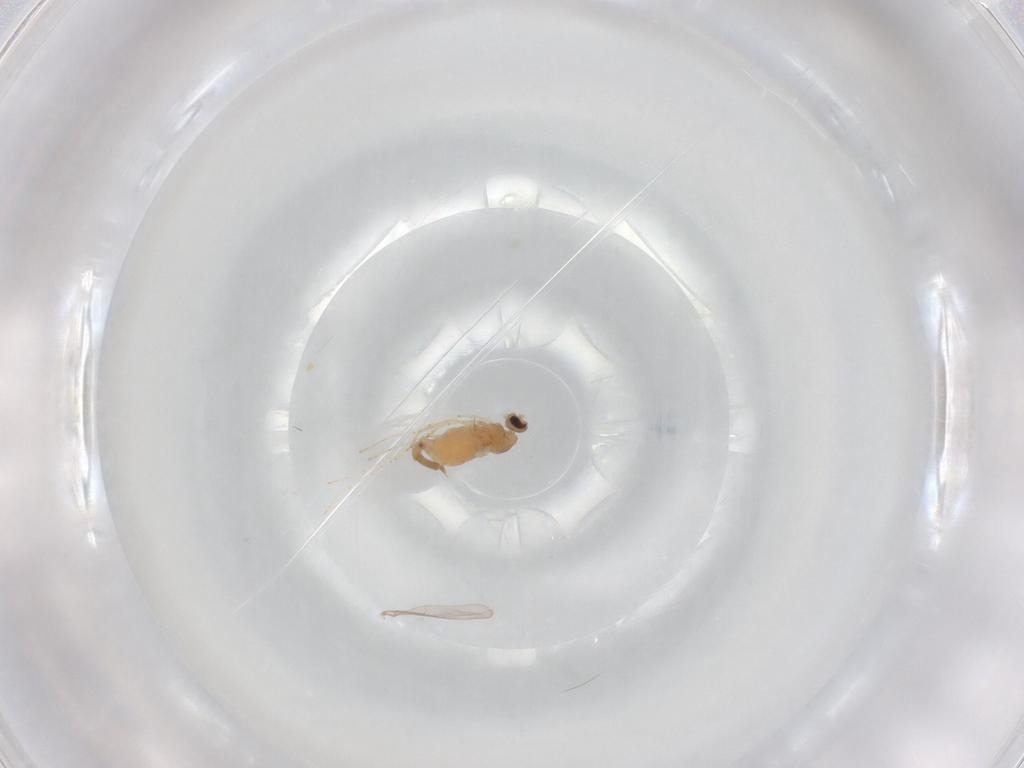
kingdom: Animalia
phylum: Arthropoda
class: Insecta
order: Diptera
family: Cecidomyiidae
